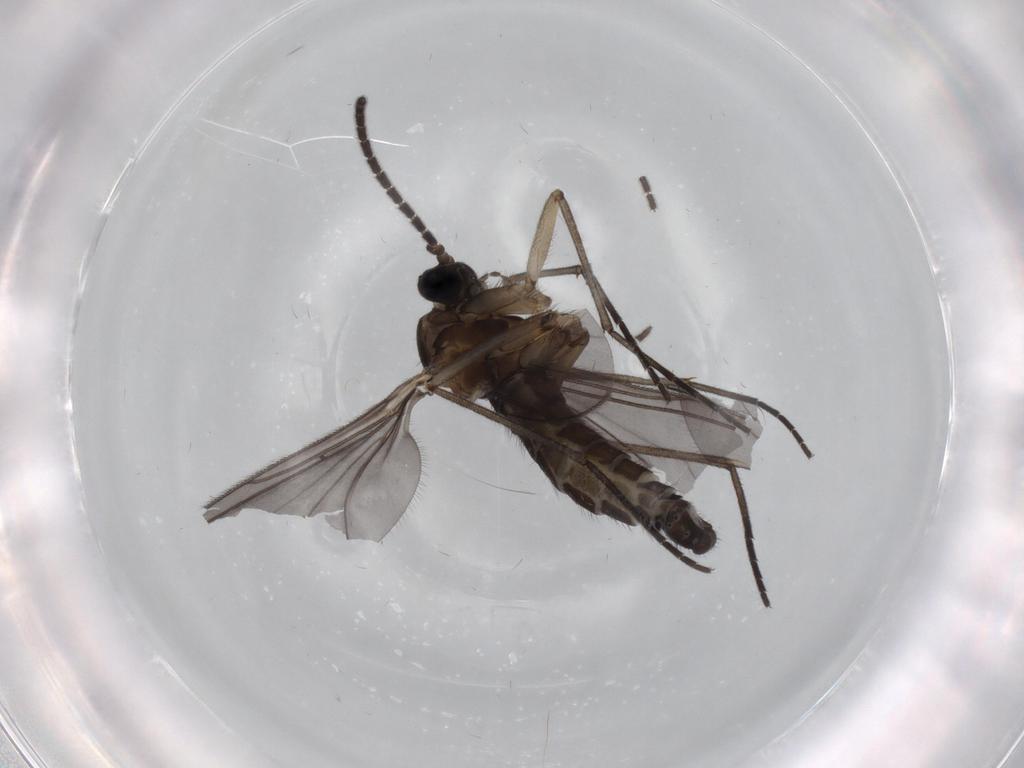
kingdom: Animalia
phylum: Arthropoda
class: Insecta
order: Diptera
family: Sciaridae
